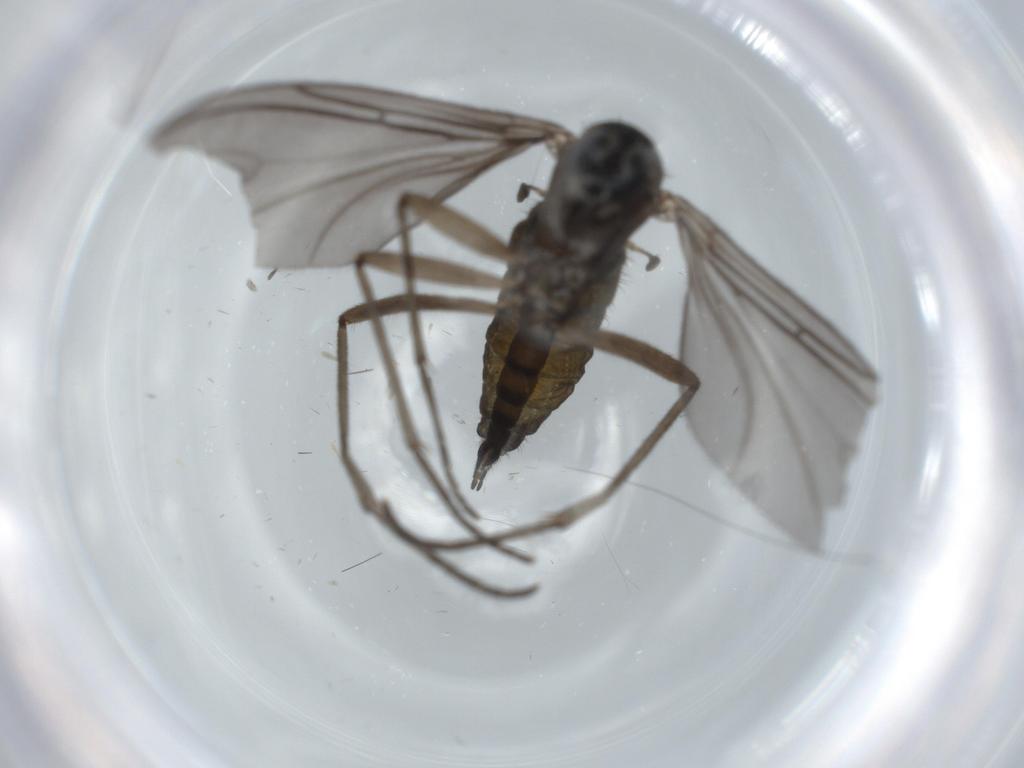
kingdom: Animalia
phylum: Arthropoda
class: Insecta
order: Diptera
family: Sciaridae
